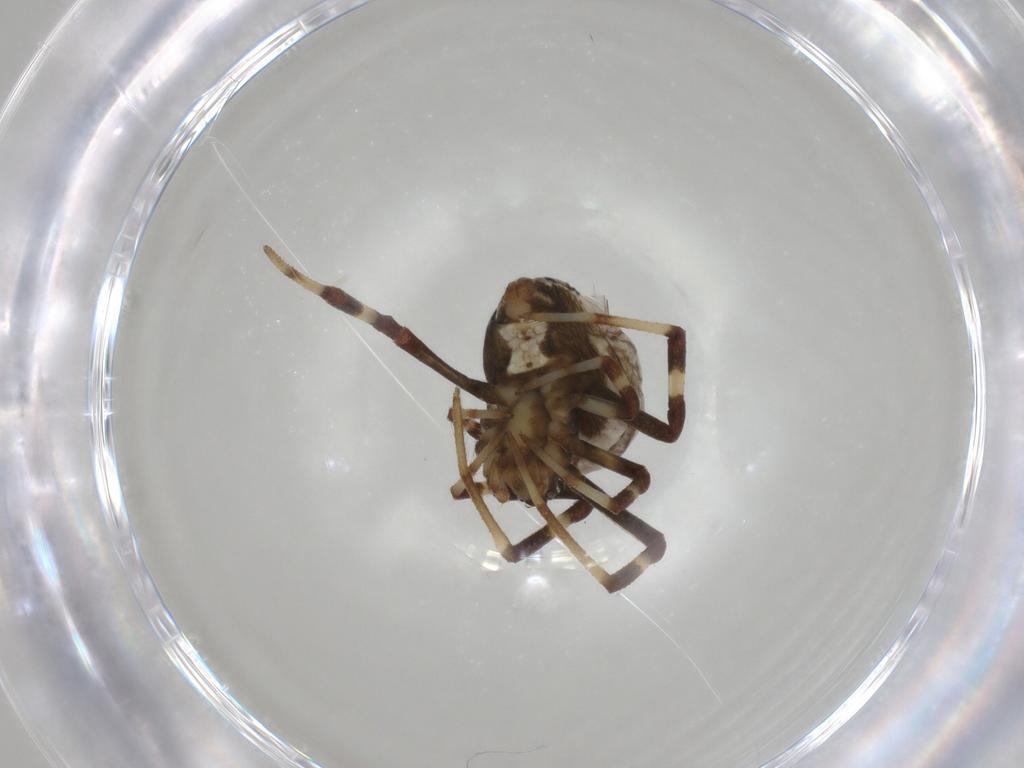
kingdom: Animalia
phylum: Arthropoda
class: Arachnida
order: Araneae
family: Theridiidae
